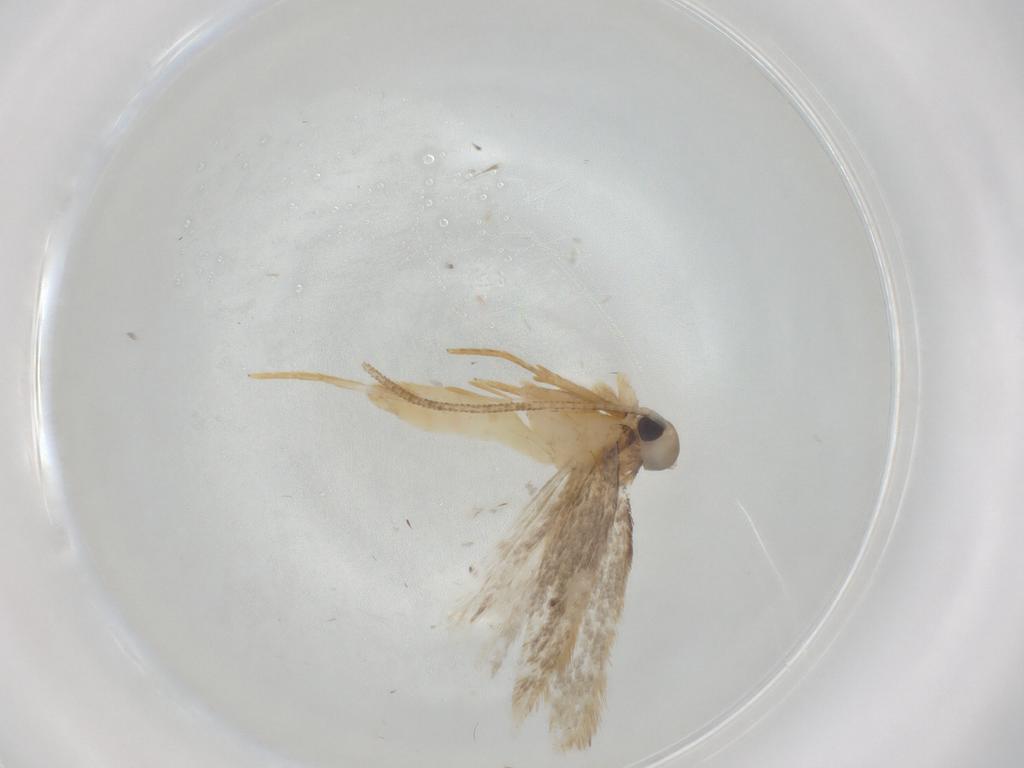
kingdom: Animalia
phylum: Arthropoda
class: Insecta
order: Lepidoptera
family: Gelechiidae
